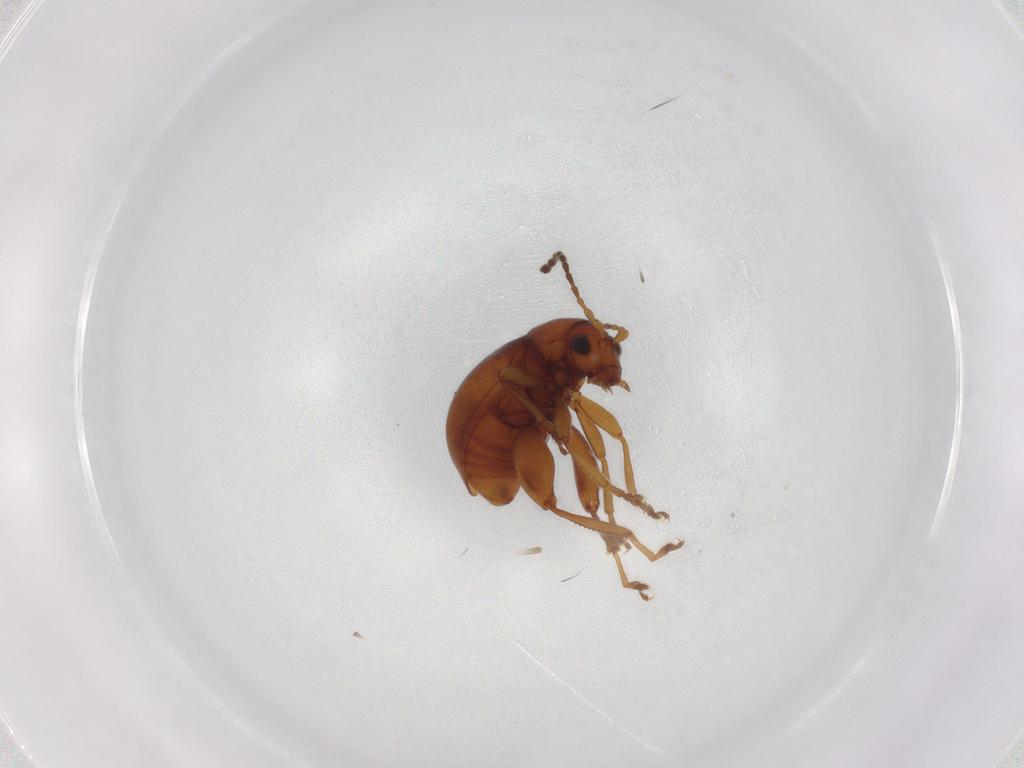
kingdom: Animalia
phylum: Arthropoda
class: Insecta
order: Coleoptera
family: Chrysomelidae
